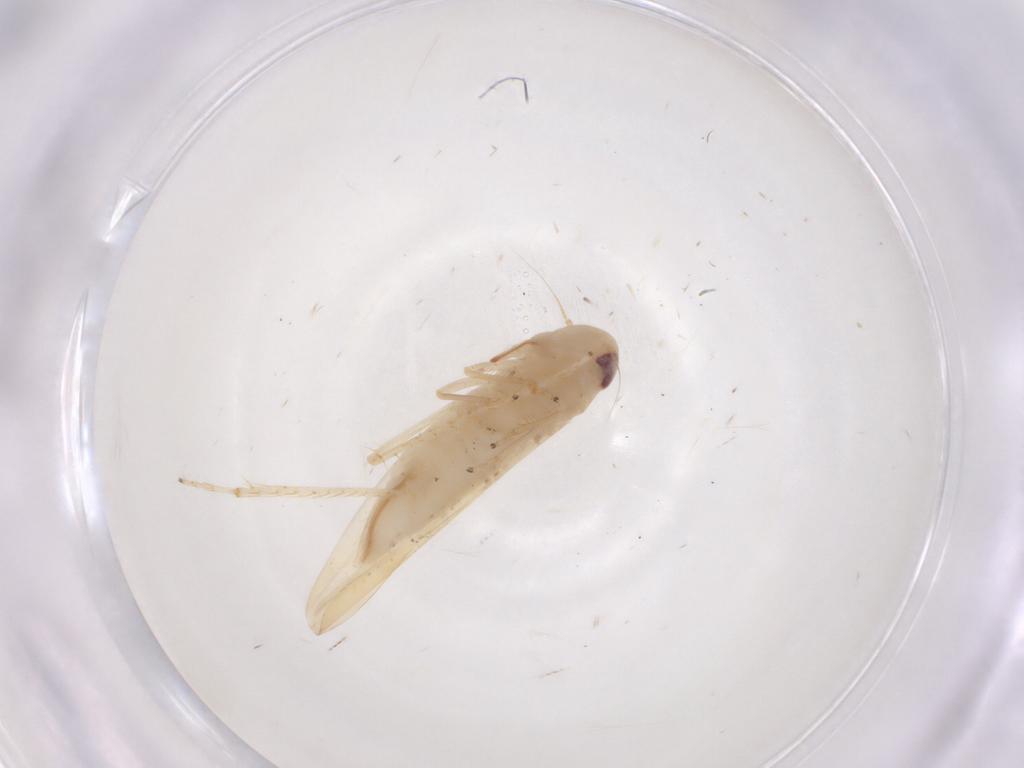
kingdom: Animalia
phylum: Arthropoda
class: Insecta
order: Hemiptera
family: Cicadellidae
